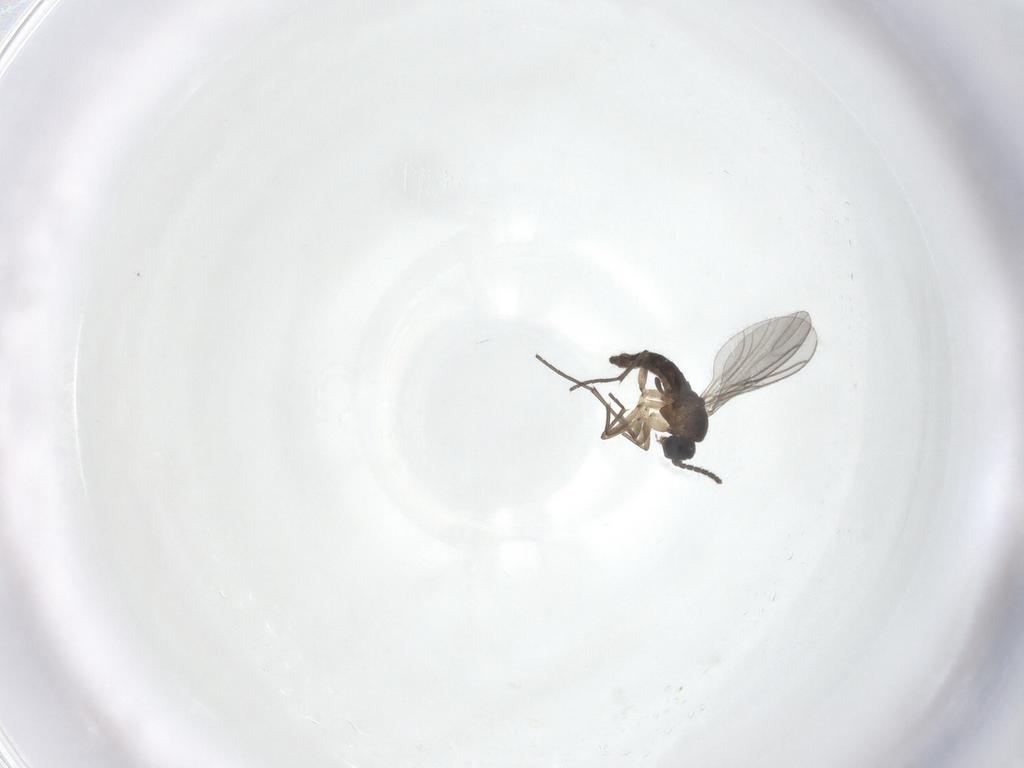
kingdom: Animalia
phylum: Arthropoda
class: Insecta
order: Diptera
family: Sciaridae
